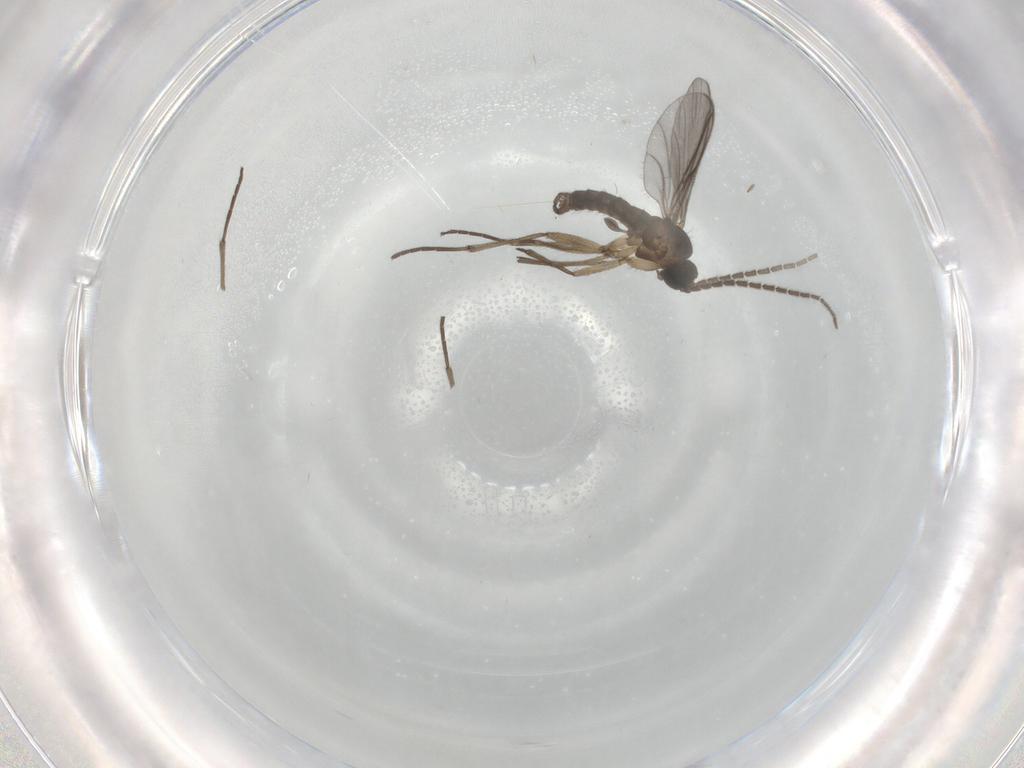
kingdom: Animalia
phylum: Arthropoda
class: Insecta
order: Diptera
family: Sciaridae
